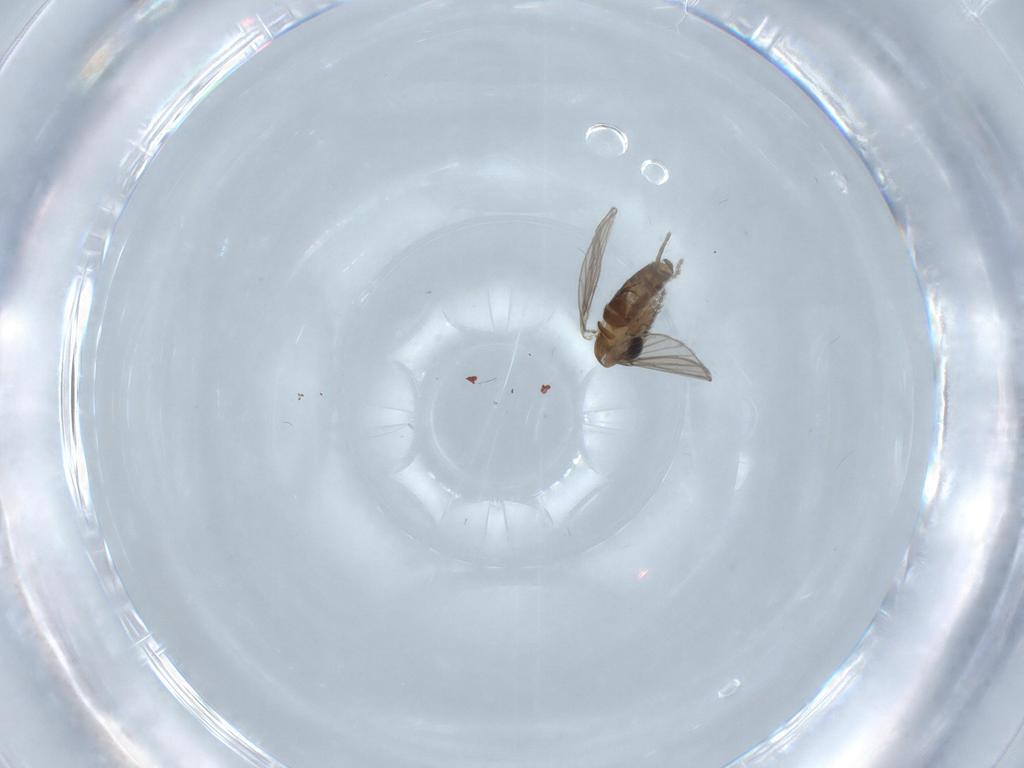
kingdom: Animalia
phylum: Arthropoda
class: Insecta
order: Diptera
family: Psychodidae
